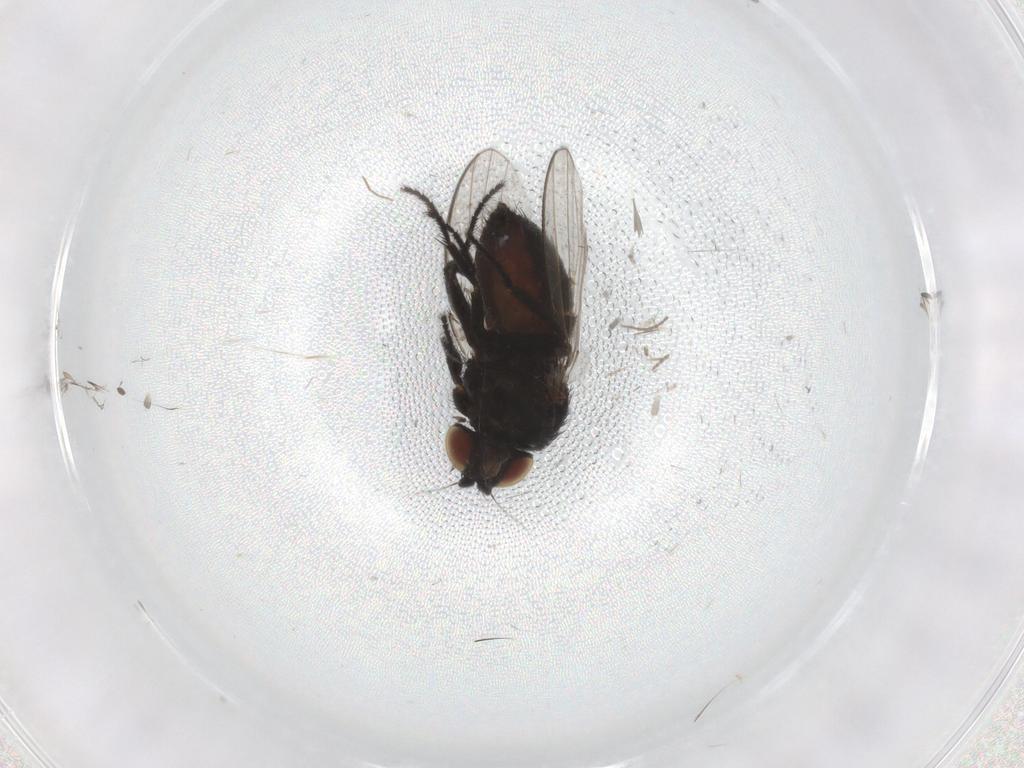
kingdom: Animalia
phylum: Arthropoda
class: Insecta
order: Diptera
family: Cecidomyiidae
